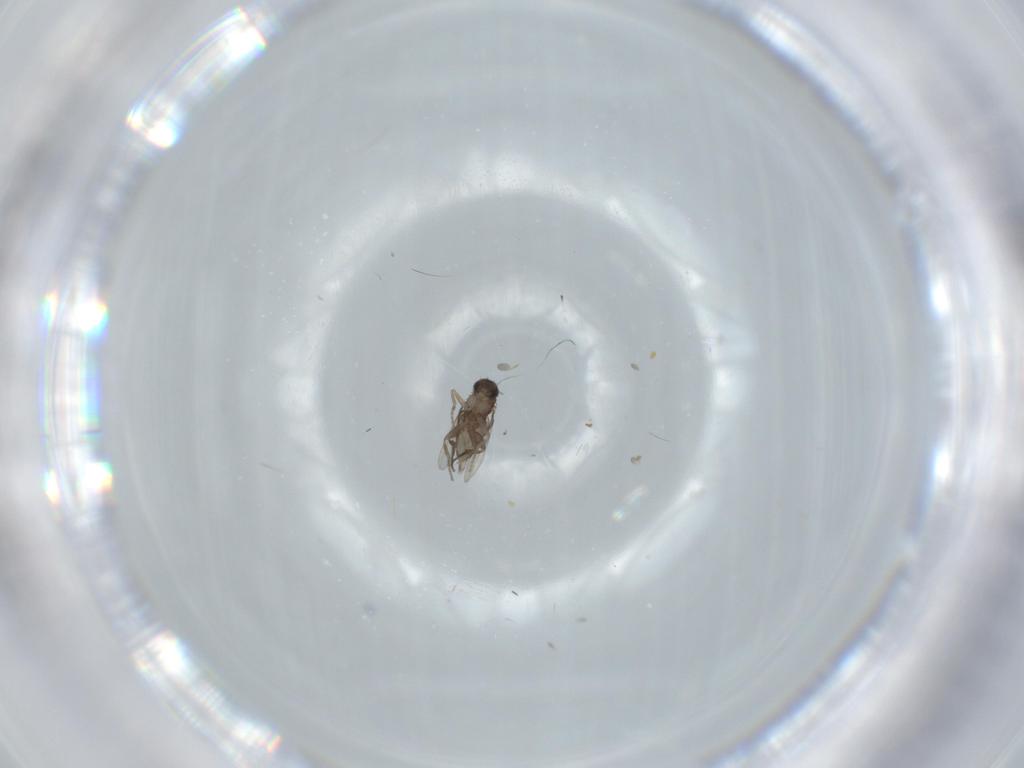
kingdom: Animalia
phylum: Arthropoda
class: Insecta
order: Diptera
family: Phoridae
